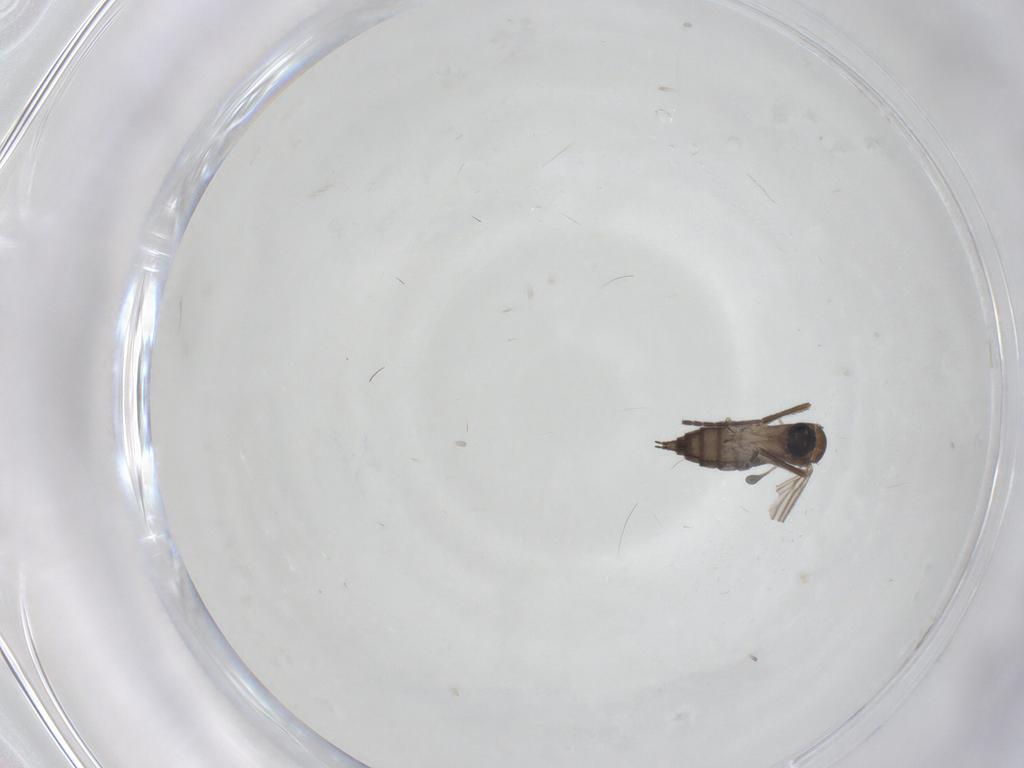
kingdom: Animalia
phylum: Arthropoda
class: Insecta
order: Diptera
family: Sciaridae
